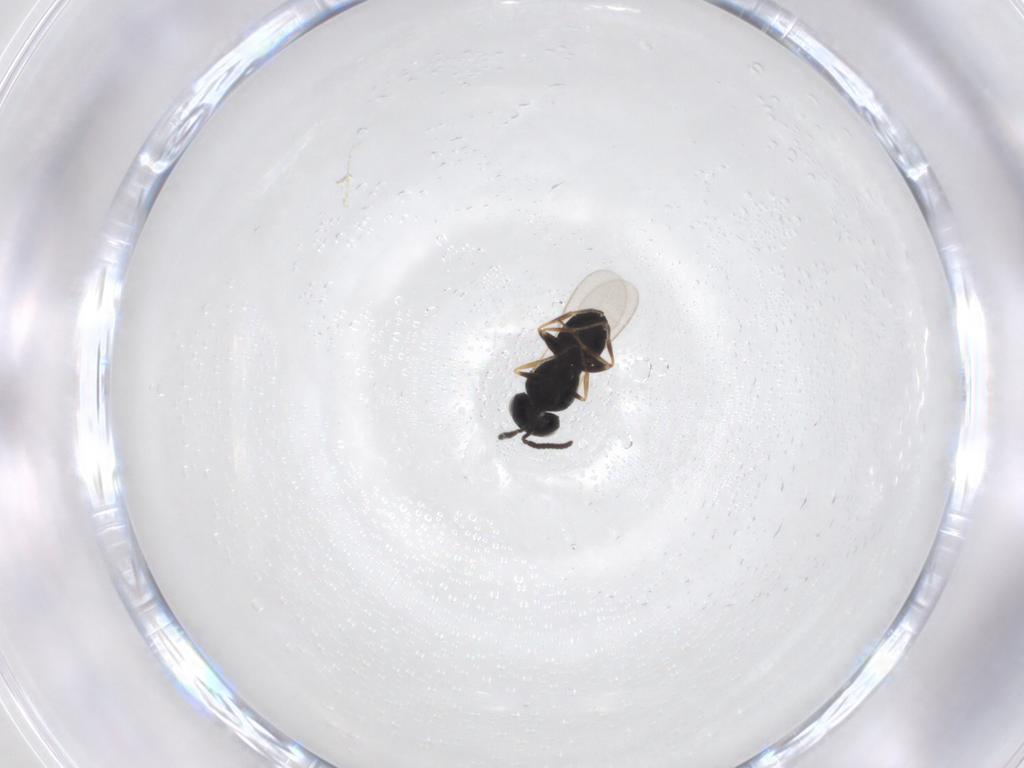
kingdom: Animalia
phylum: Arthropoda
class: Insecta
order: Hymenoptera
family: Scelionidae
